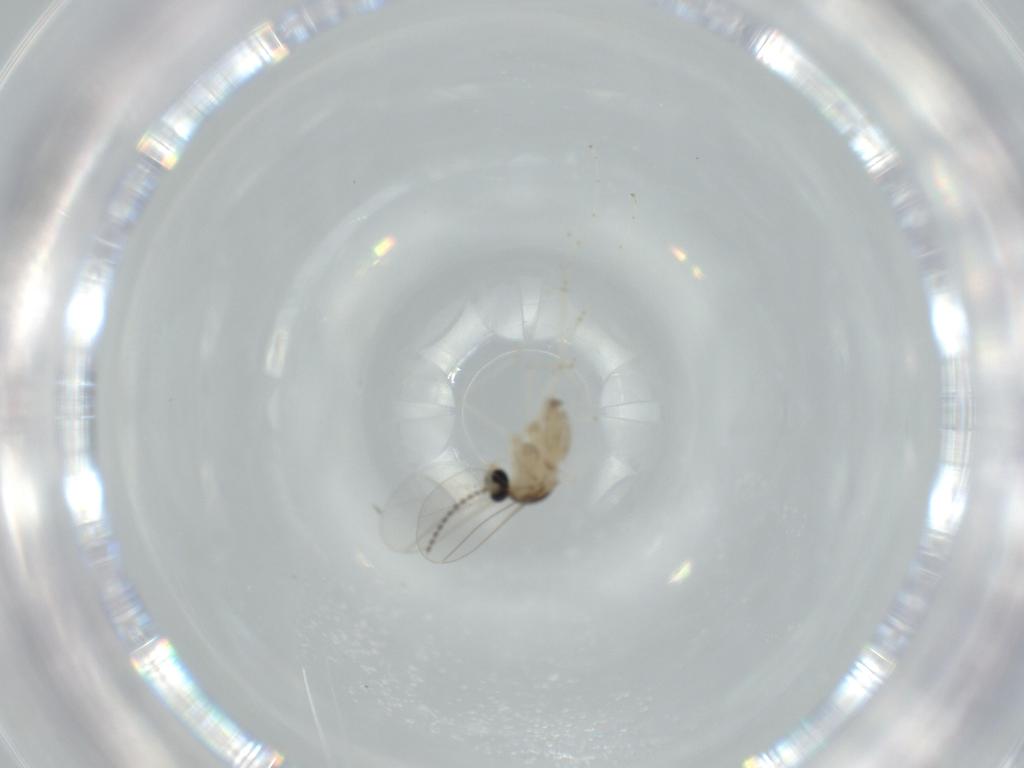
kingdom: Animalia
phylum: Arthropoda
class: Insecta
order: Diptera
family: Cecidomyiidae
